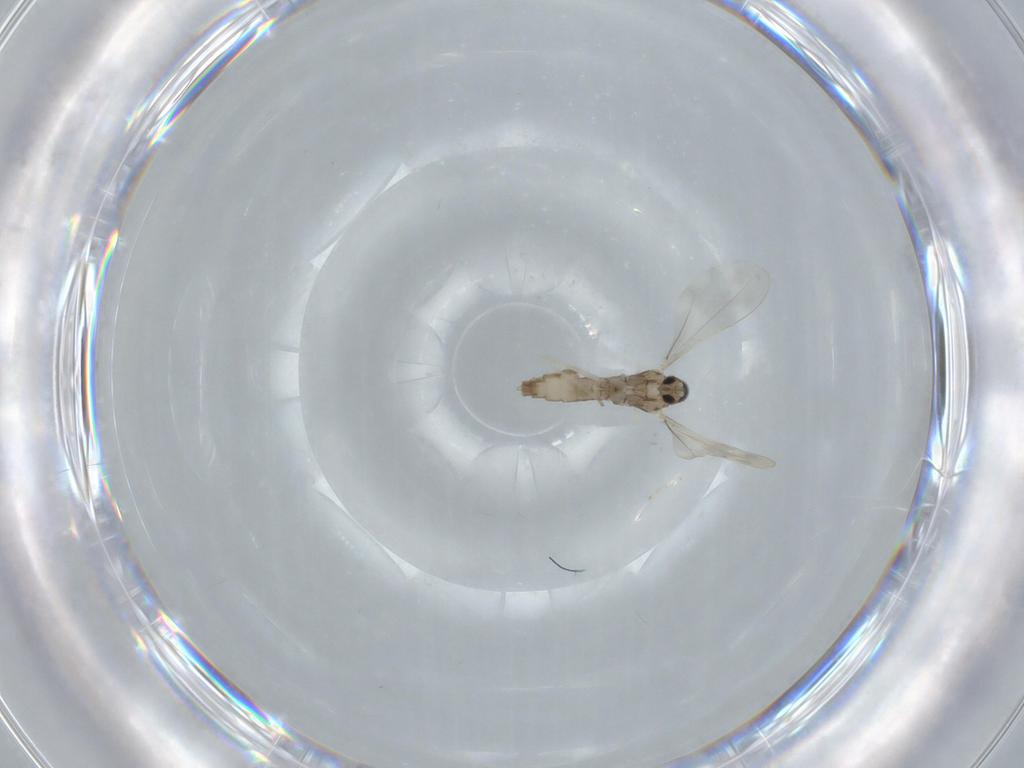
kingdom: Animalia
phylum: Arthropoda
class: Insecta
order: Diptera
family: Cecidomyiidae
